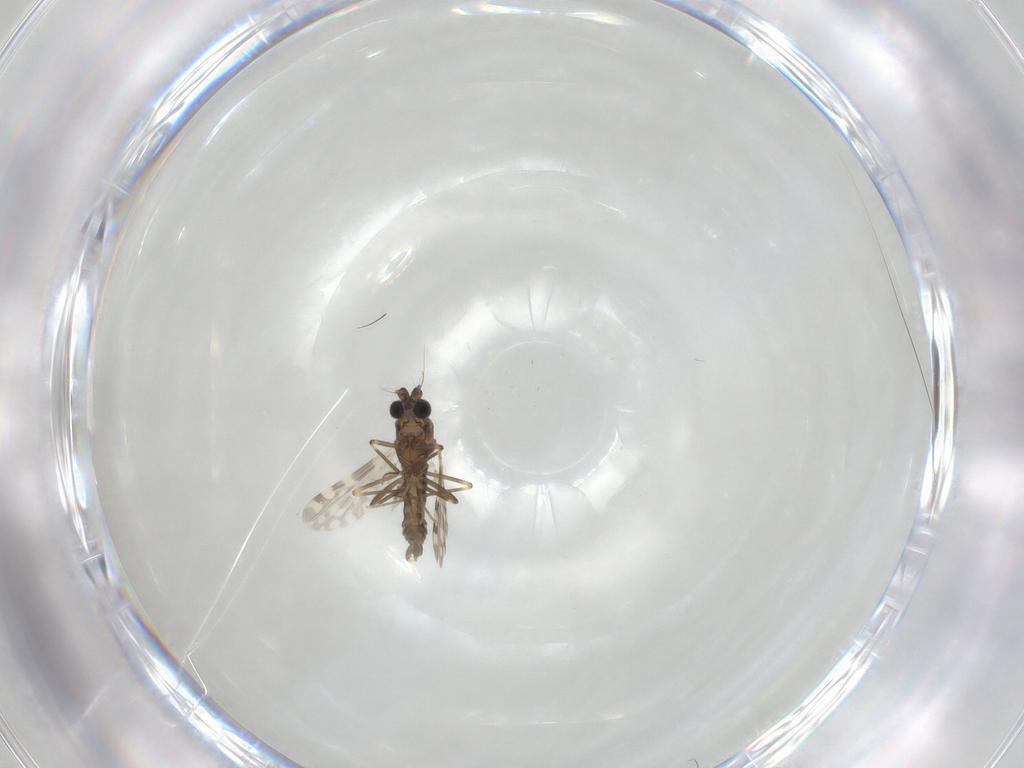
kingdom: Animalia
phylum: Arthropoda
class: Insecta
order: Diptera
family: Ceratopogonidae
